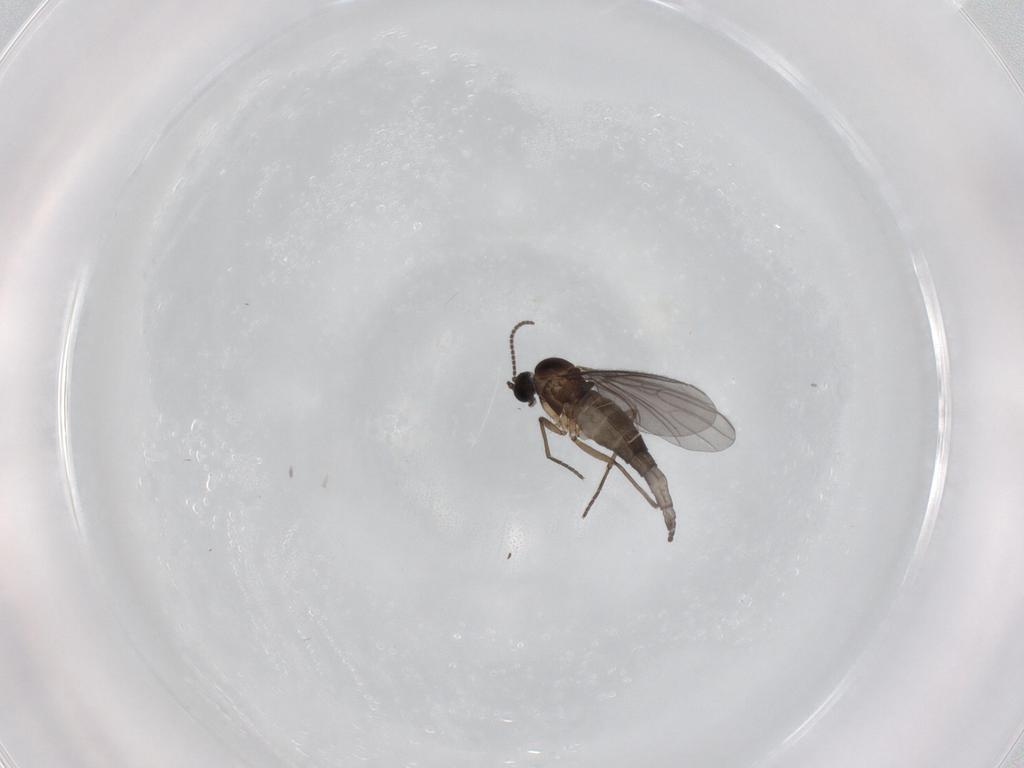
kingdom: Animalia
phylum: Arthropoda
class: Insecta
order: Diptera
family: Sciaridae
